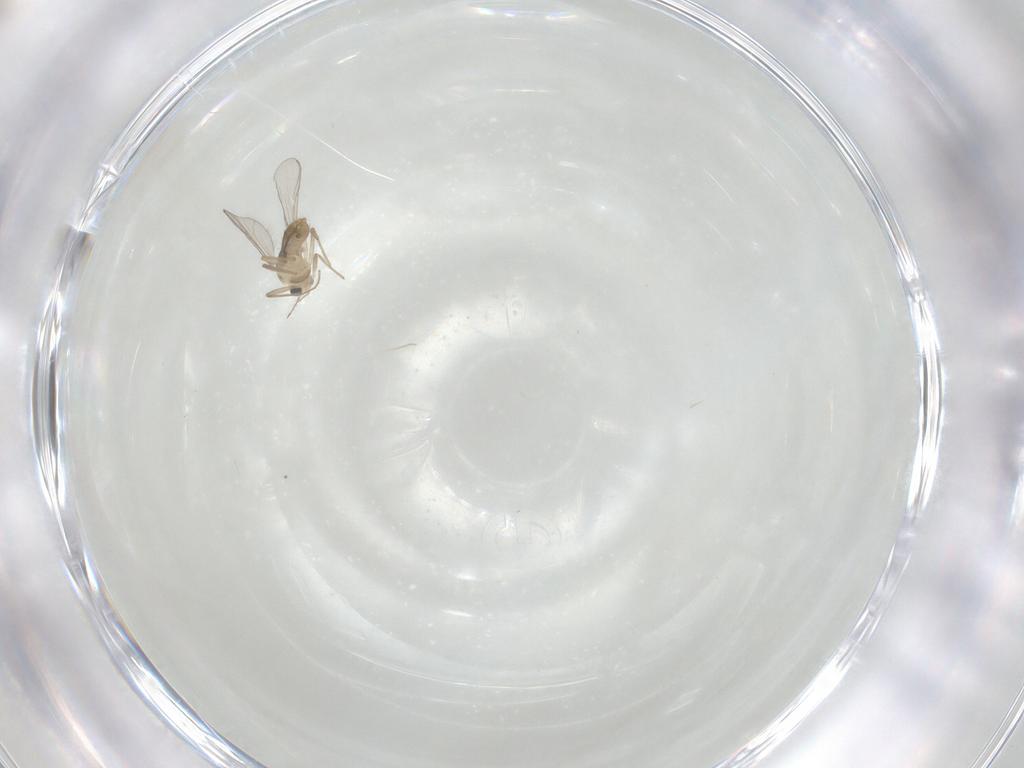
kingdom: Animalia
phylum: Arthropoda
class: Insecta
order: Diptera
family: Chironomidae
